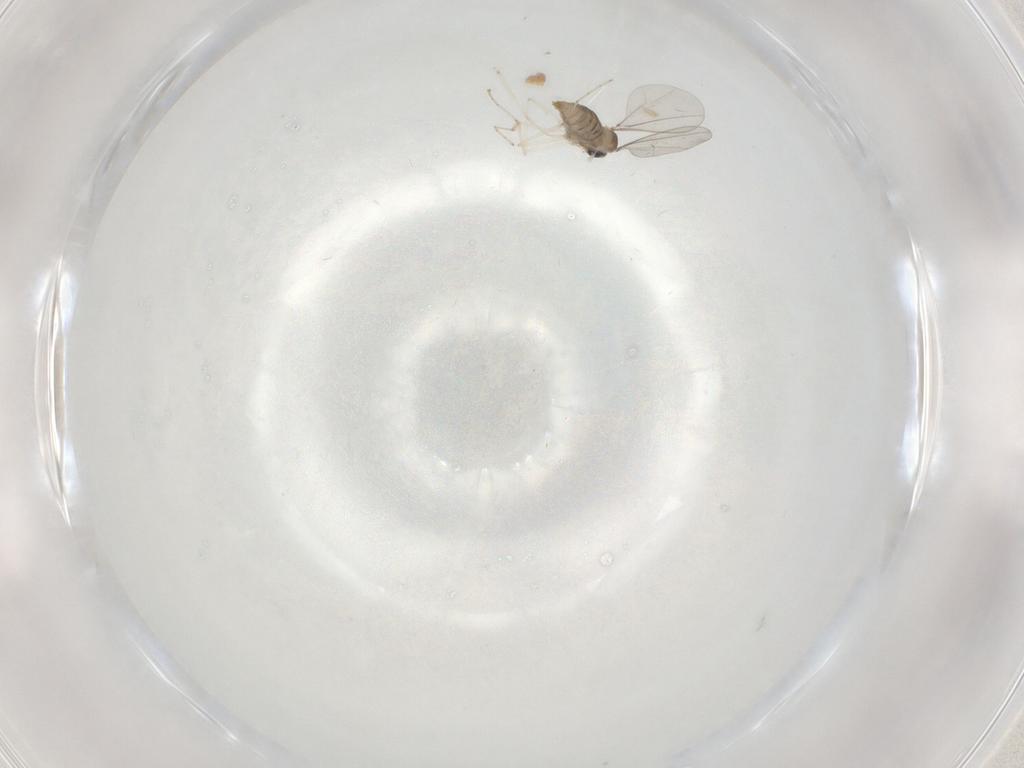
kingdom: Animalia
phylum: Arthropoda
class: Insecta
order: Diptera
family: Cecidomyiidae
